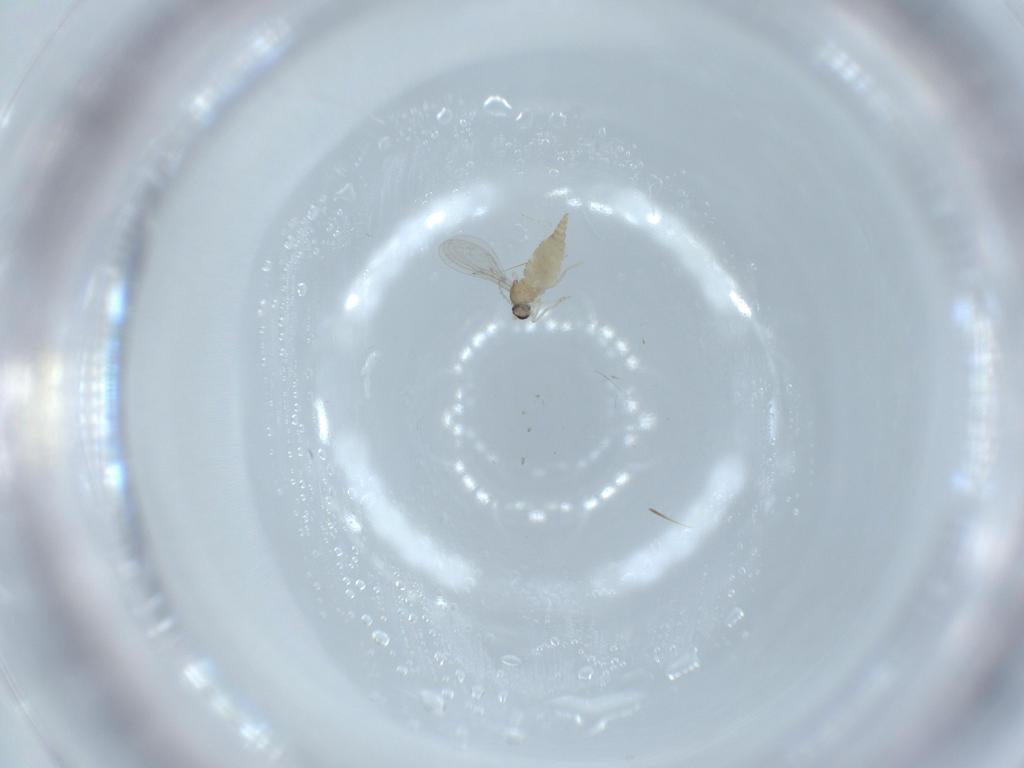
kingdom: Animalia
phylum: Arthropoda
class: Insecta
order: Diptera
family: Cecidomyiidae
